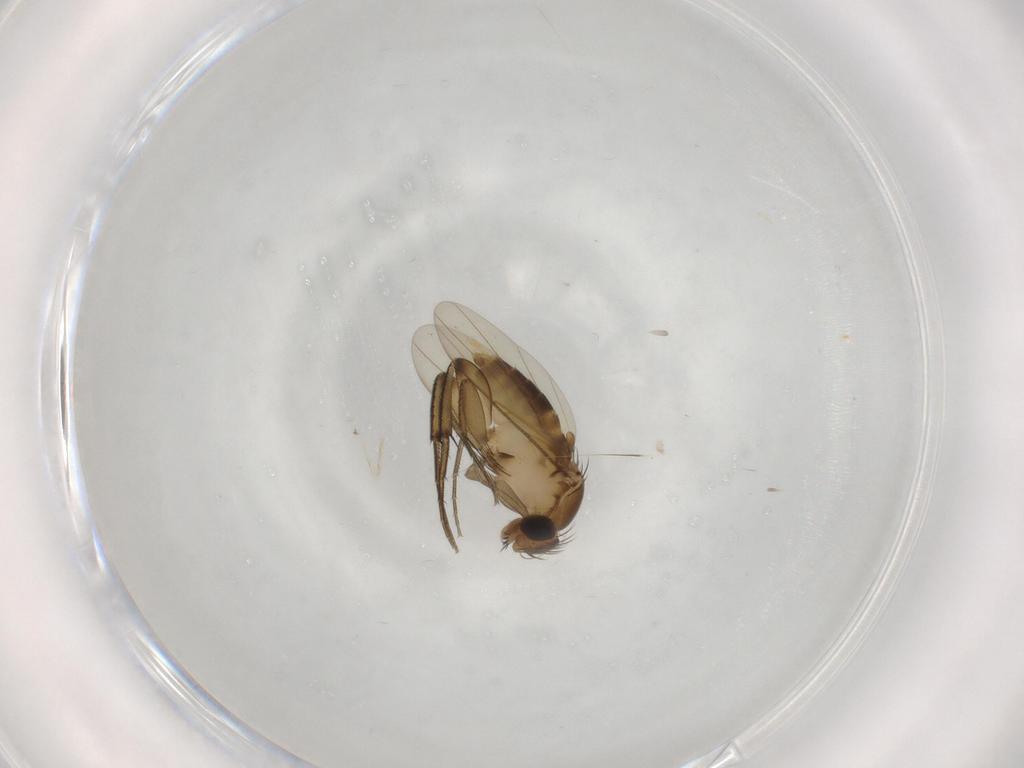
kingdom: Animalia
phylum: Arthropoda
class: Insecta
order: Diptera
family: Phoridae
